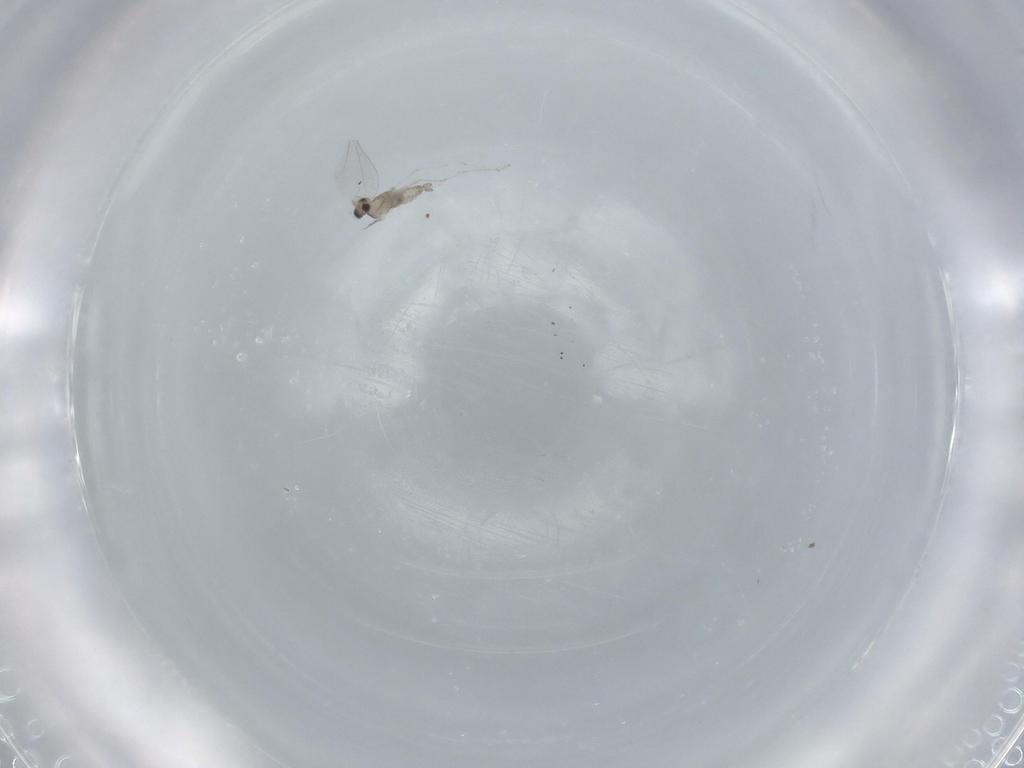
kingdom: Animalia
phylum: Arthropoda
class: Insecta
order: Diptera
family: Cecidomyiidae
